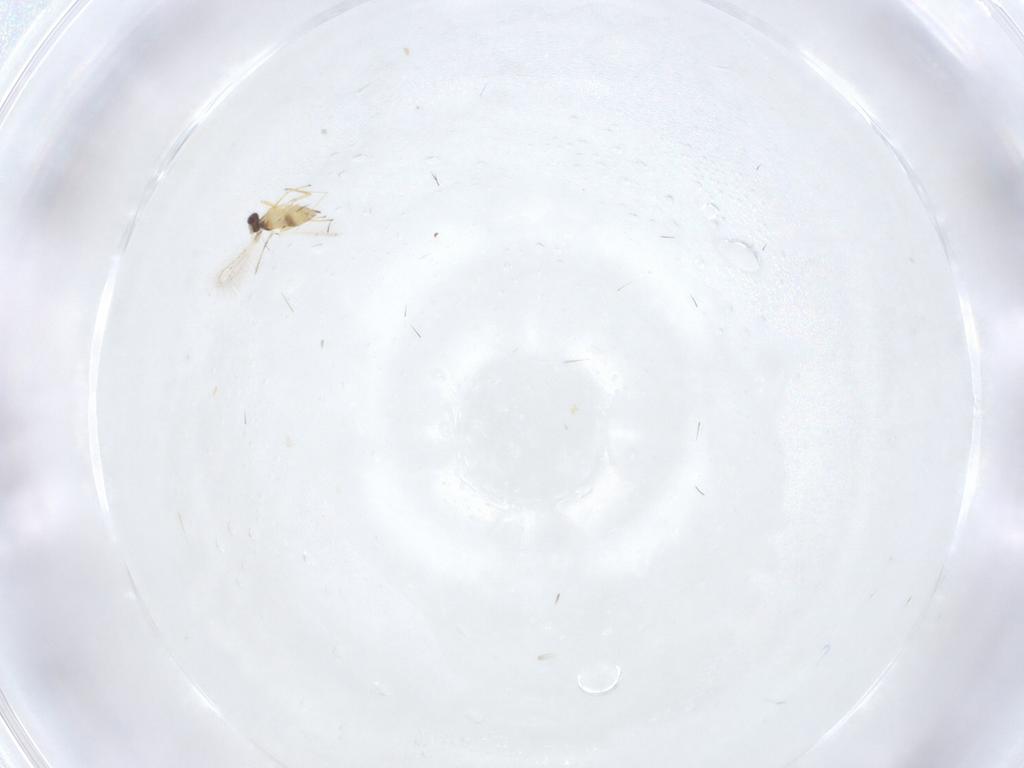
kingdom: Animalia
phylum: Arthropoda
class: Insecta
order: Hymenoptera
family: Mymaridae
